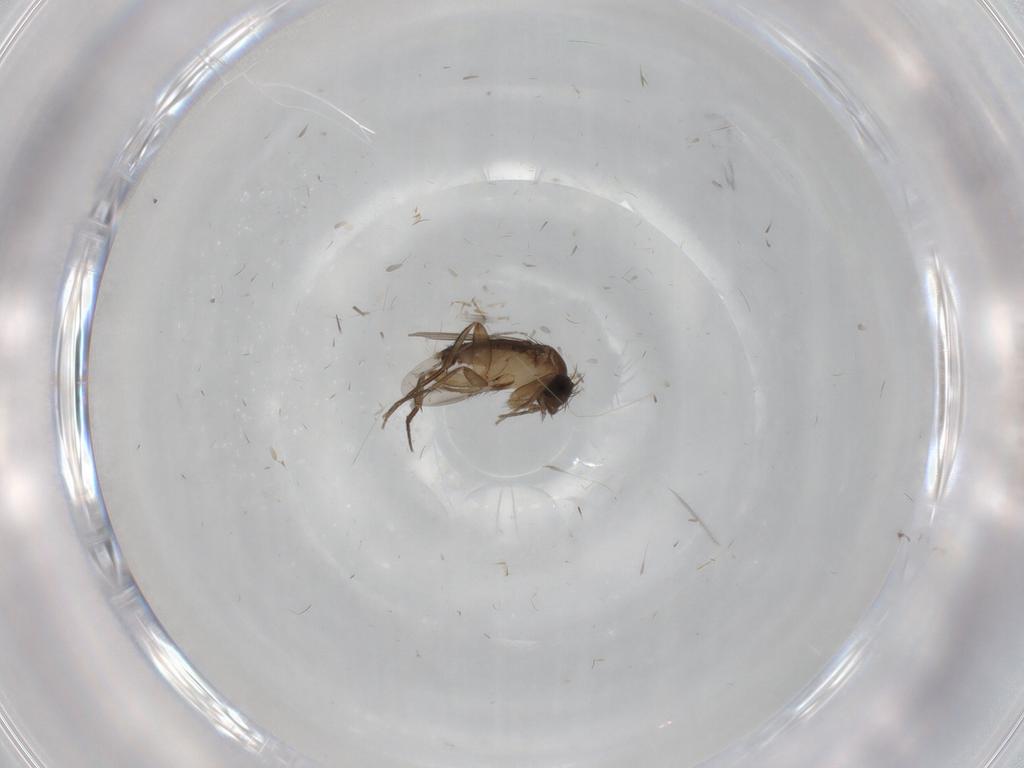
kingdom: Animalia
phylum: Arthropoda
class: Insecta
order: Diptera
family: Phoridae
